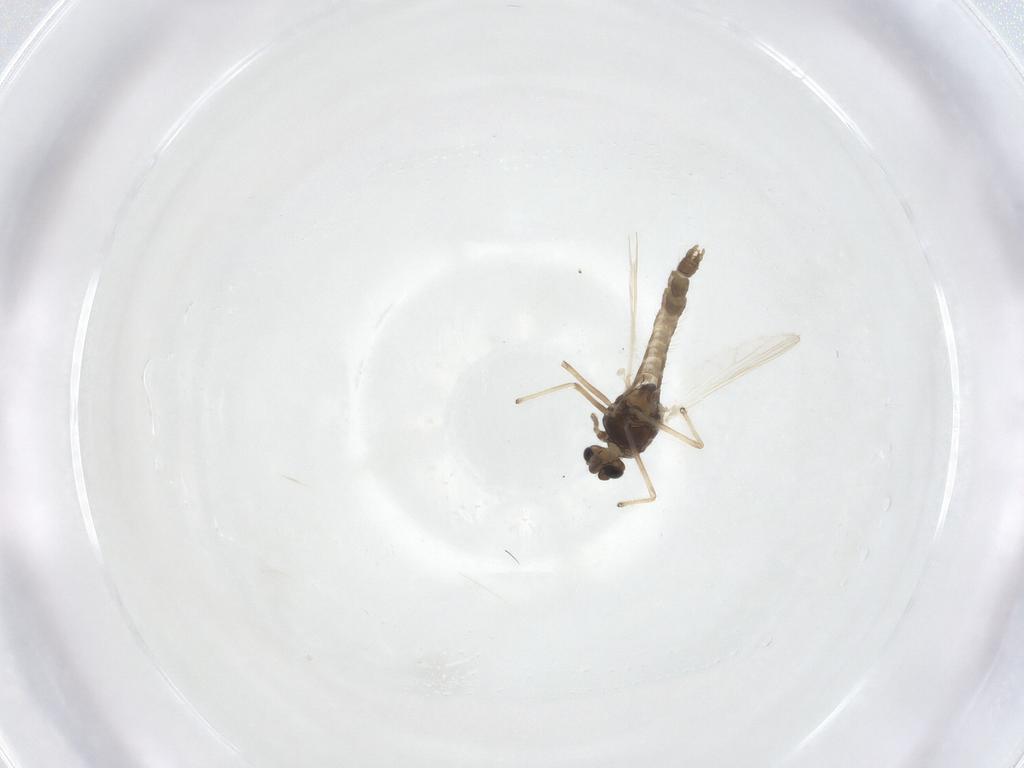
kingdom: Animalia
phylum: Arthropoda
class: Insecta
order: Diptera
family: Chironomidae
